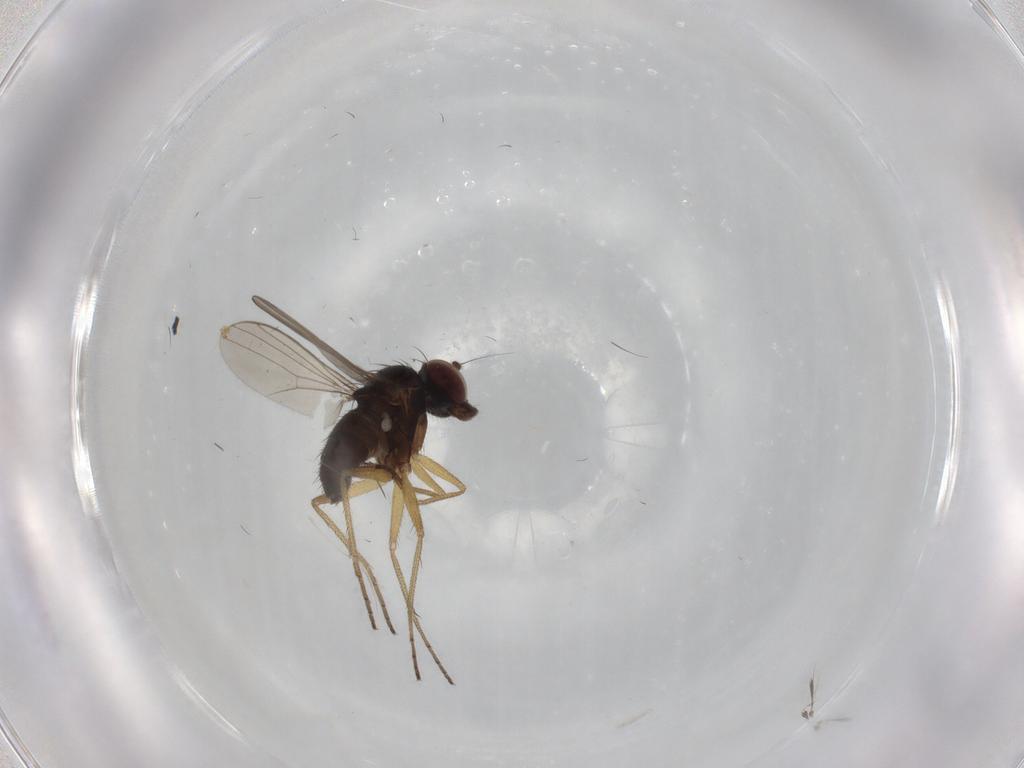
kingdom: Animalia
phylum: Arthropoda
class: Insecta
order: Diptera
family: Dolichopodidae
